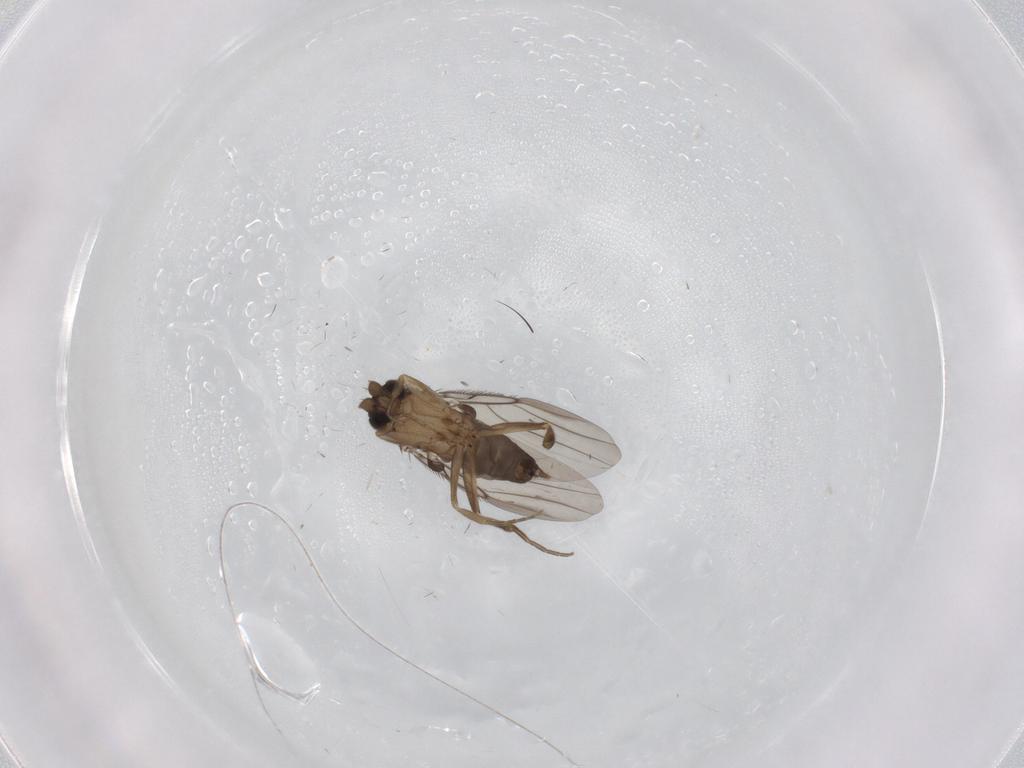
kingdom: Animalia
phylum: Arthropoda
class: Insecta
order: Diptera
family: Phoridae
